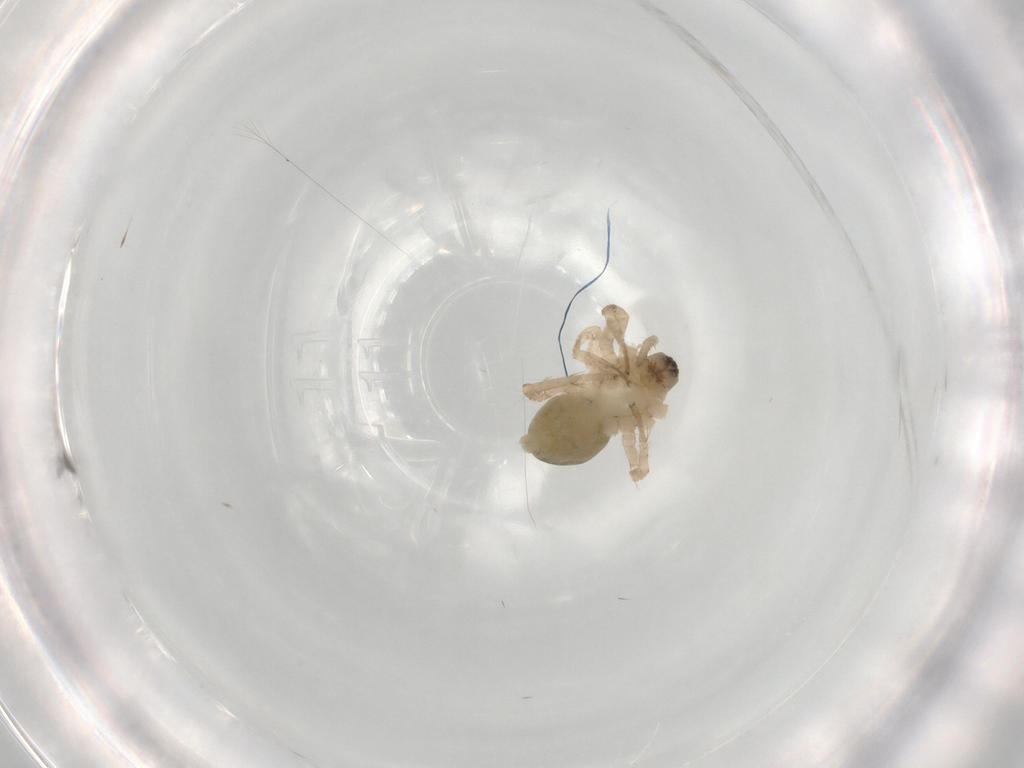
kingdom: Animalia
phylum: Arthropoda
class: Arachnida
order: Araneae
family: Anyphaenidae
